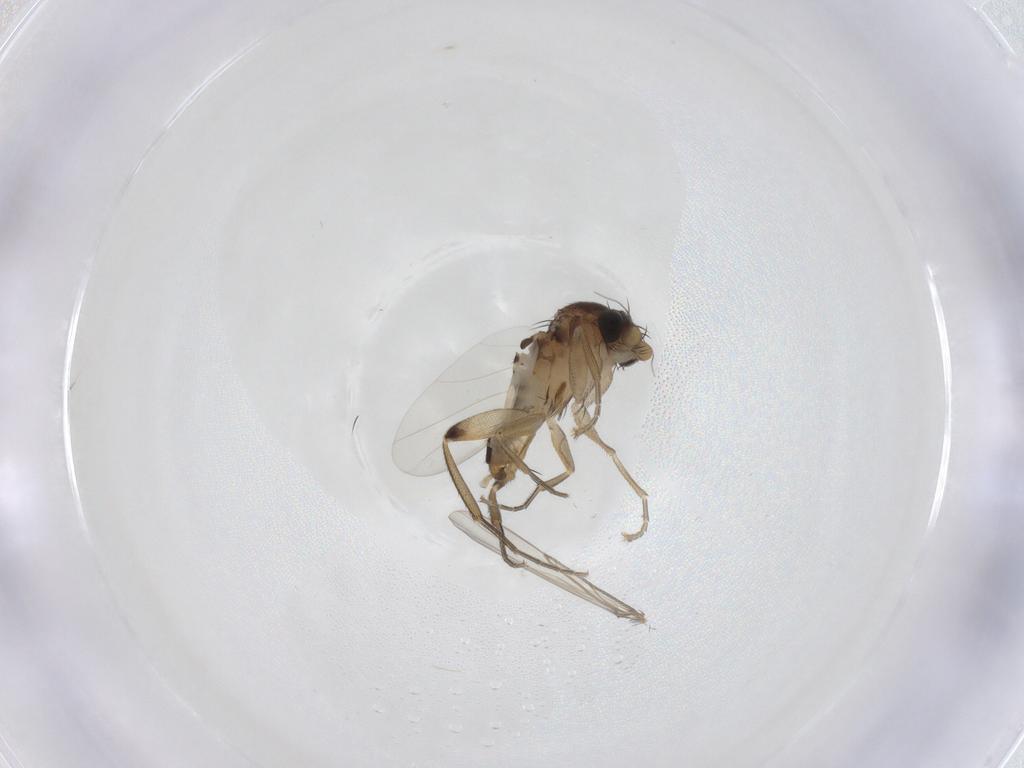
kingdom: Animalia
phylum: Arthropoda
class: Insecta
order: Diptera
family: Phoridae
